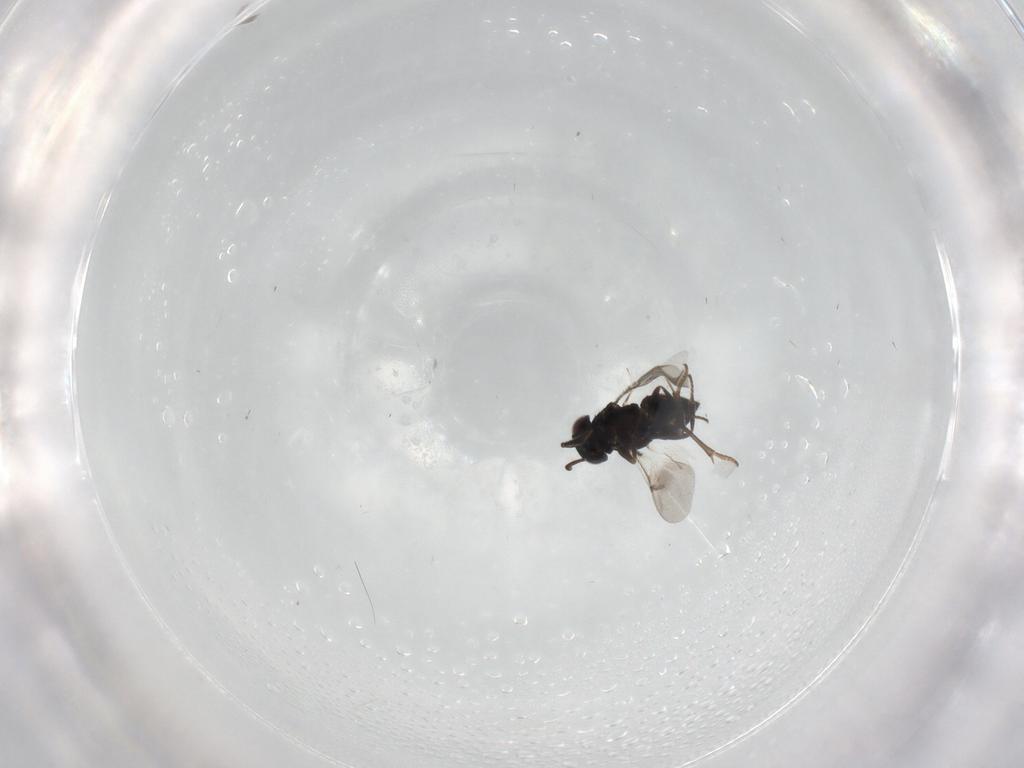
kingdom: Animalia
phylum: Arthropoda
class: Insecta
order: Hymenoptera
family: Encyrtidae
